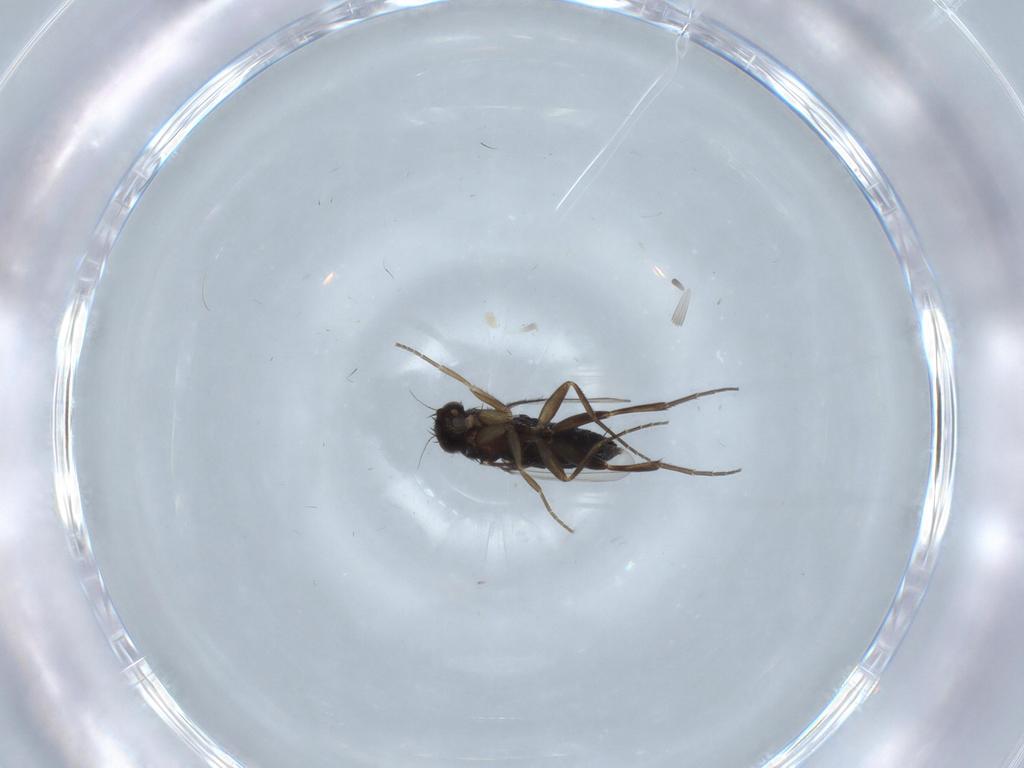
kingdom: Animalia
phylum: Arthropoda
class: Insecta
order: Diptera
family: Phoridae
